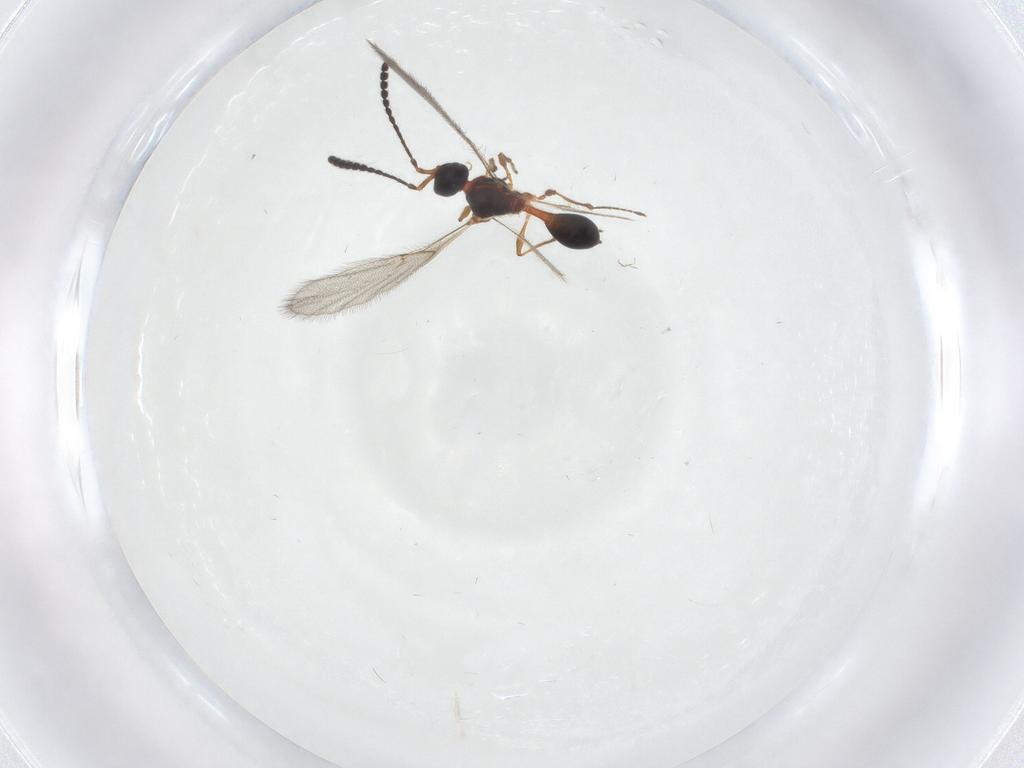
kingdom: Animalia
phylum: Arthropoda
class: Insecta
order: Hymenoptera
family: Diapriidae
